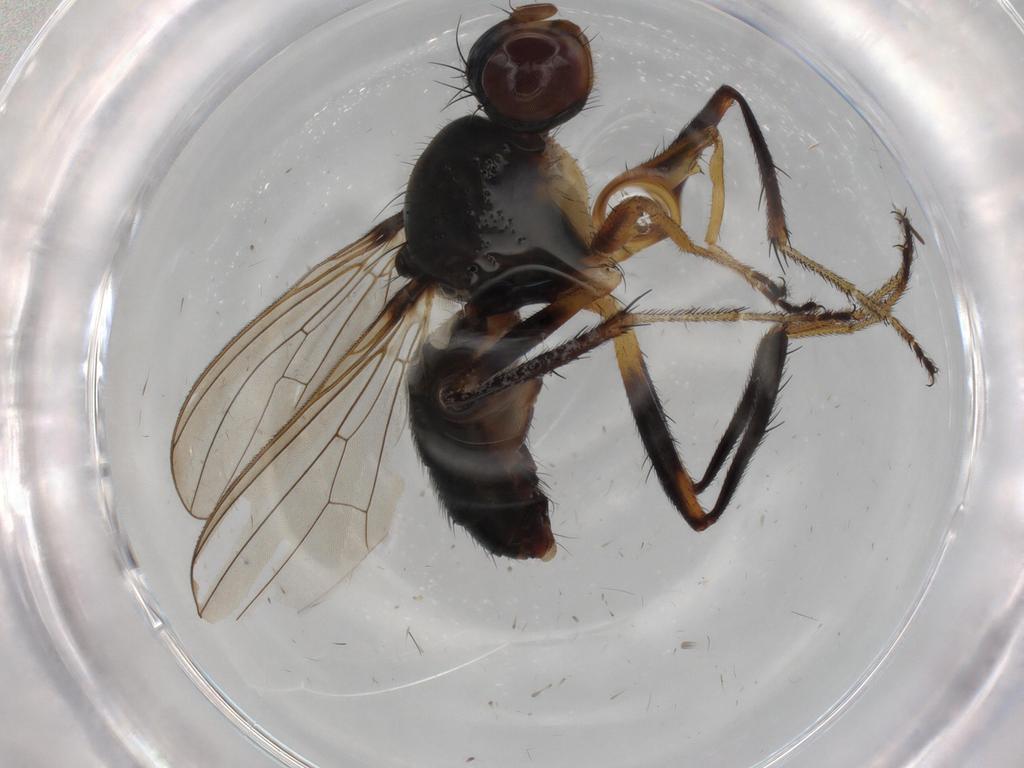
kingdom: Animalia
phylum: Arthropoda
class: Insecta
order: Diptera
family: Sepsidae
